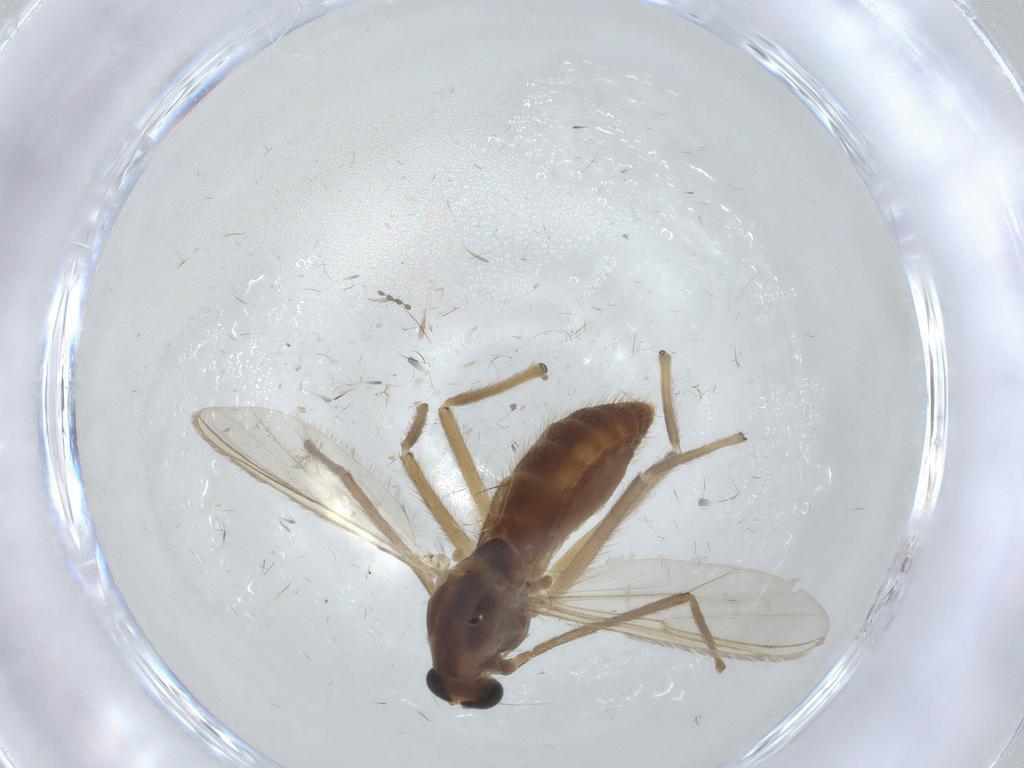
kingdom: Animalia
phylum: Arthropoda
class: Insecta
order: Diptera
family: Chironomidae
